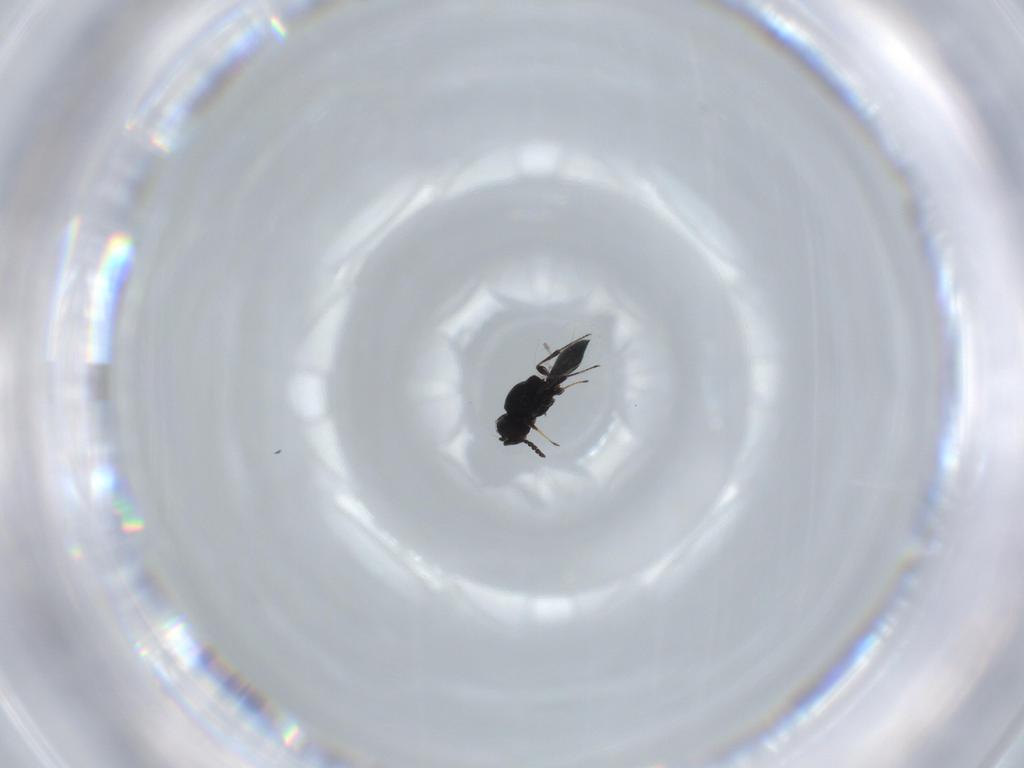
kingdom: Animalia
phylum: Arthropoda
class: Insecta
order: Hymenoptera
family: Platygastridae
